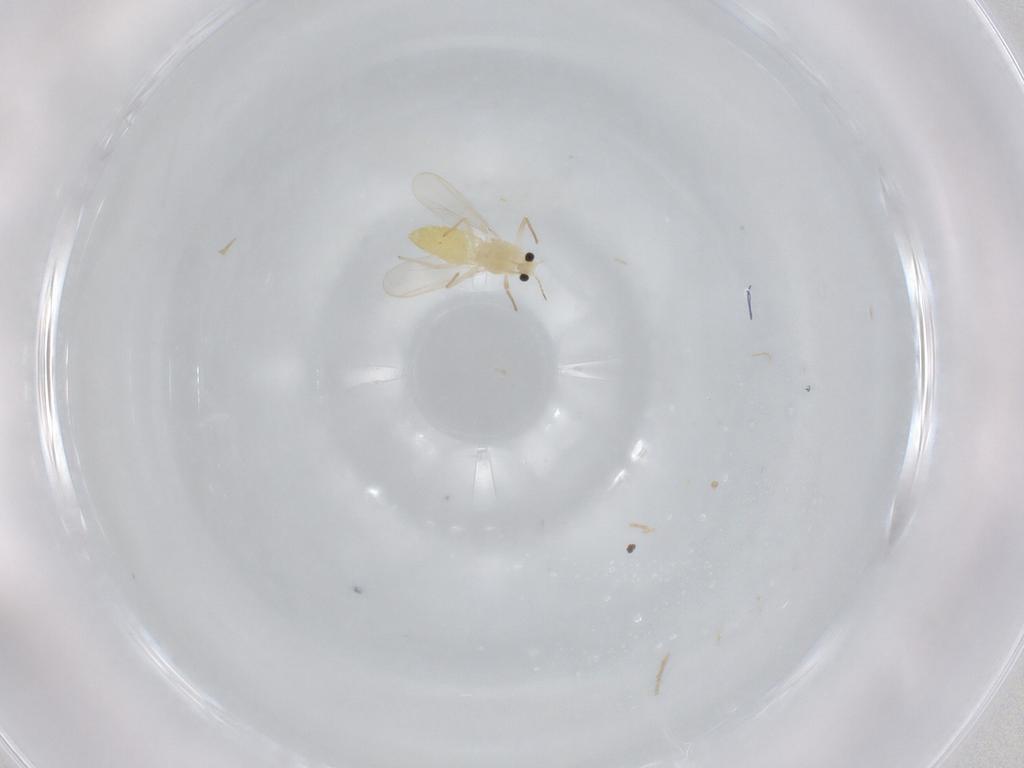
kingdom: Animalia
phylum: Arthropoda
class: Insecta
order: Diptera
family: Chironomidae
